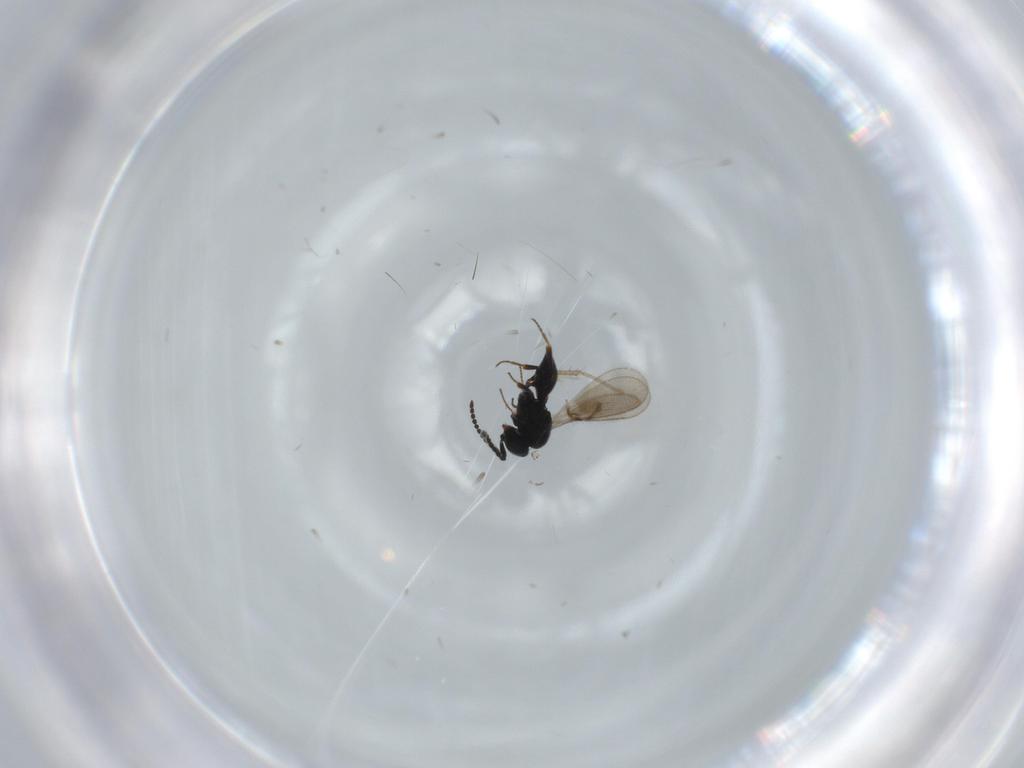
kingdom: Animalia
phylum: Arthropoda
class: Insecta
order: Hymenoptera
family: Scelionidae
